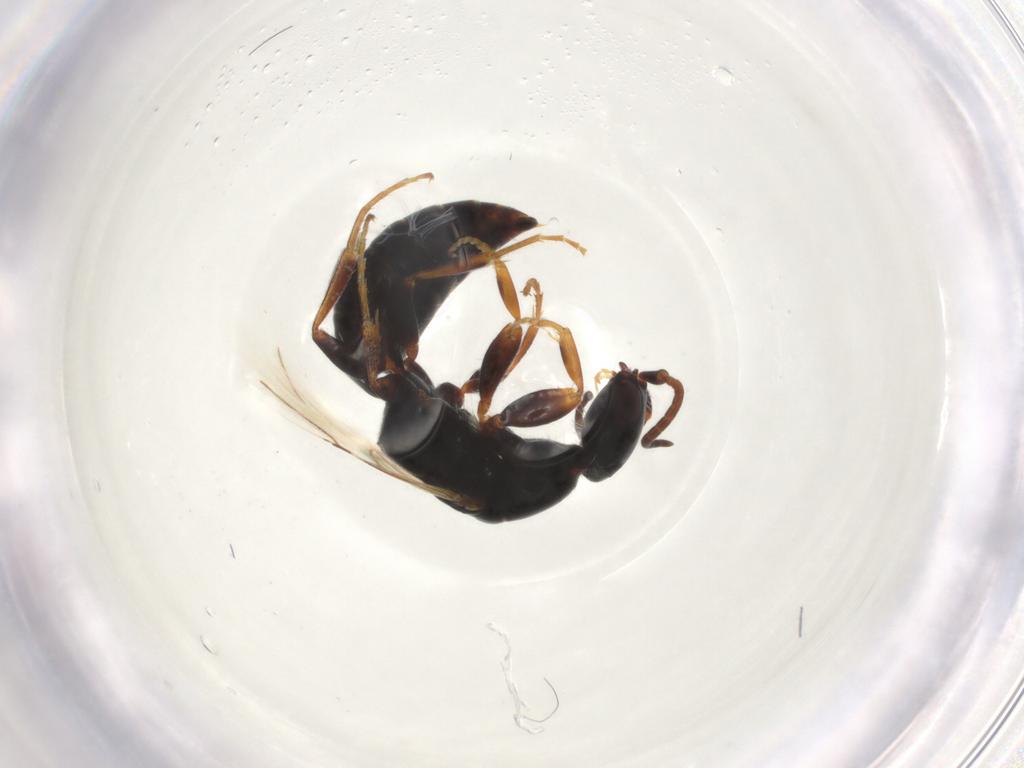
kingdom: Animalia
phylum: Arthropoda
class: Insecta
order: Hymenoptera
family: Bethylidae
